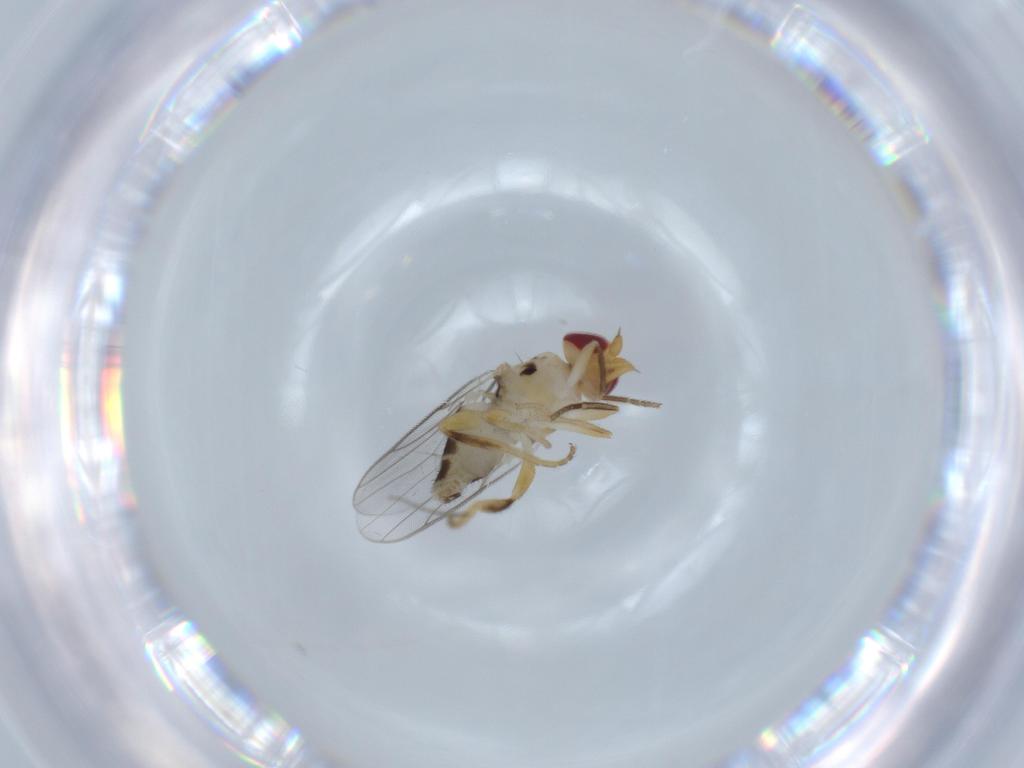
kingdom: Animalia
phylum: Arthropoda
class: Insecta
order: Diptera
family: Chloropidae
